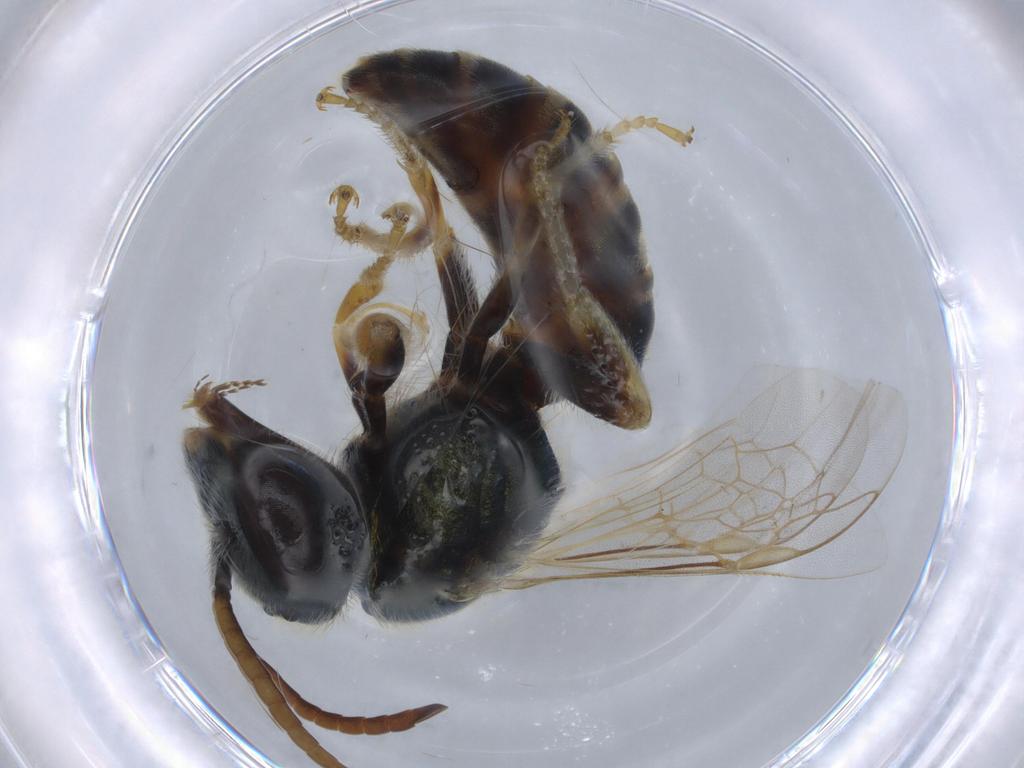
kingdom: Animalia
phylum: Arthropoda
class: Insecta
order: Hymenoptera
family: Halictidae
